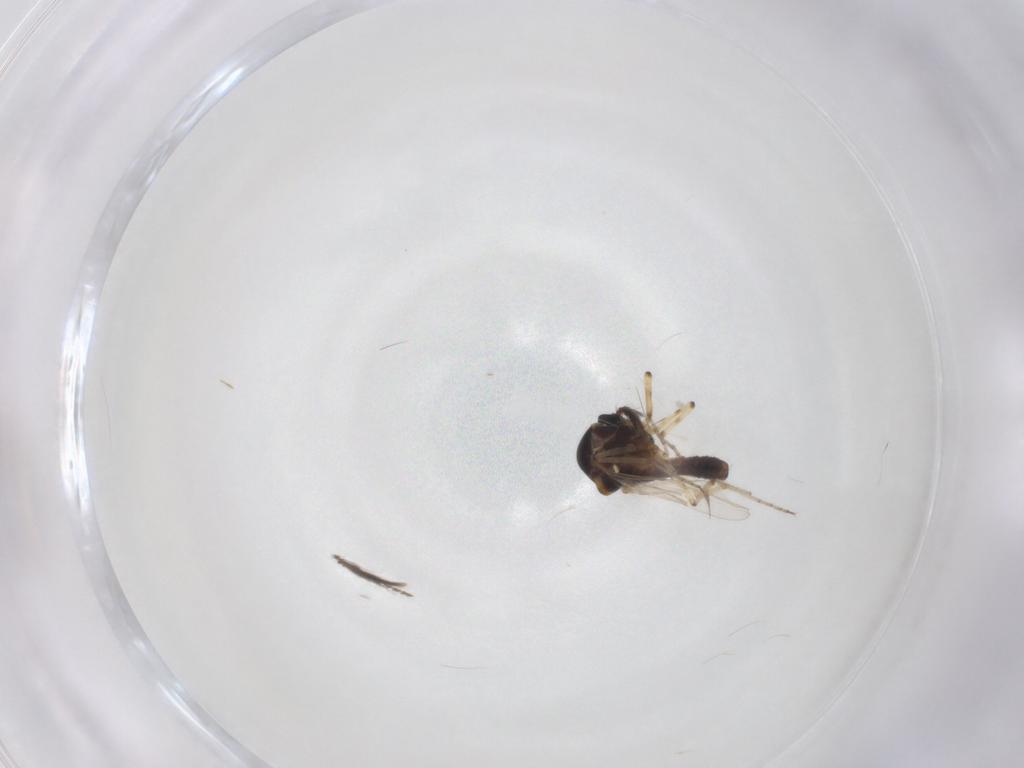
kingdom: Animalia
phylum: Arthropoda
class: Insecta
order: Diptera
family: Ceratopogonidae
